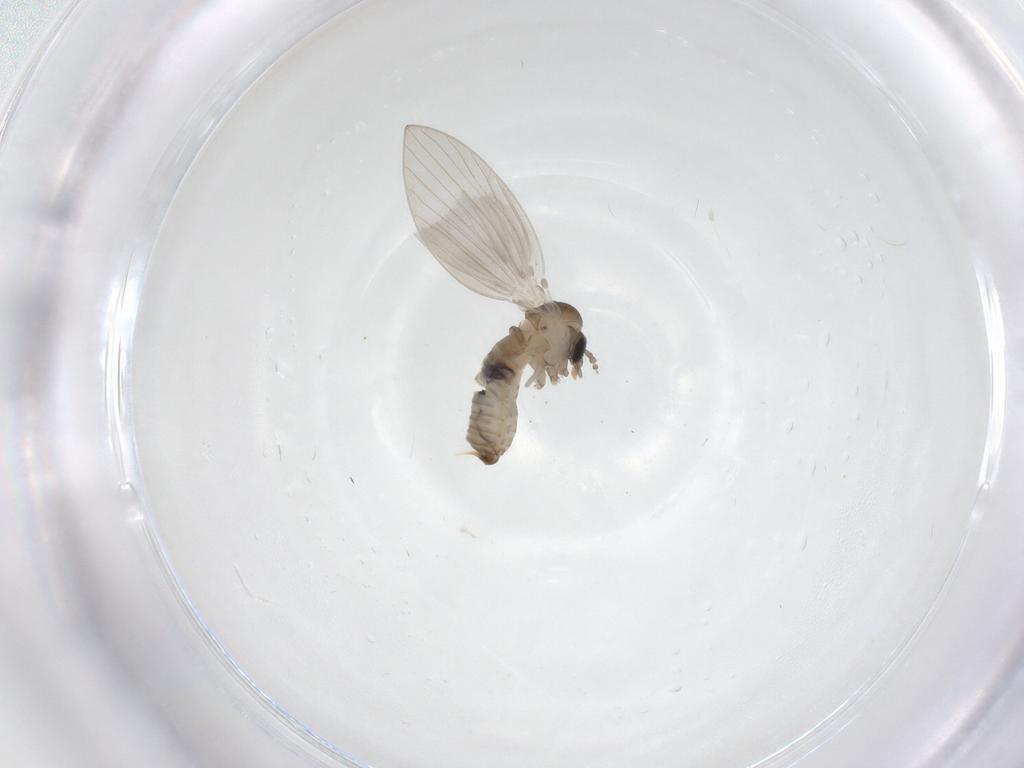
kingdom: Animalia
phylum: Arthropoda
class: Insecta
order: Diptera
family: Psychodidae
